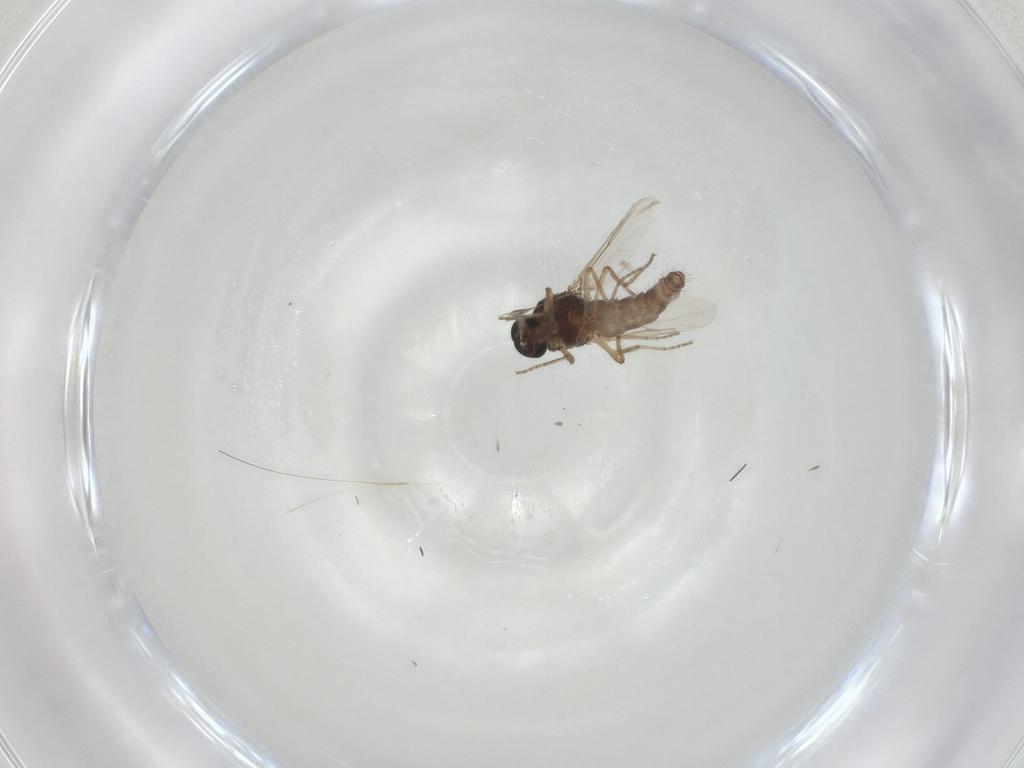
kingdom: Animalia
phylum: Arthropoda
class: Insecta
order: Diptera
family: Ceratopogonidae
